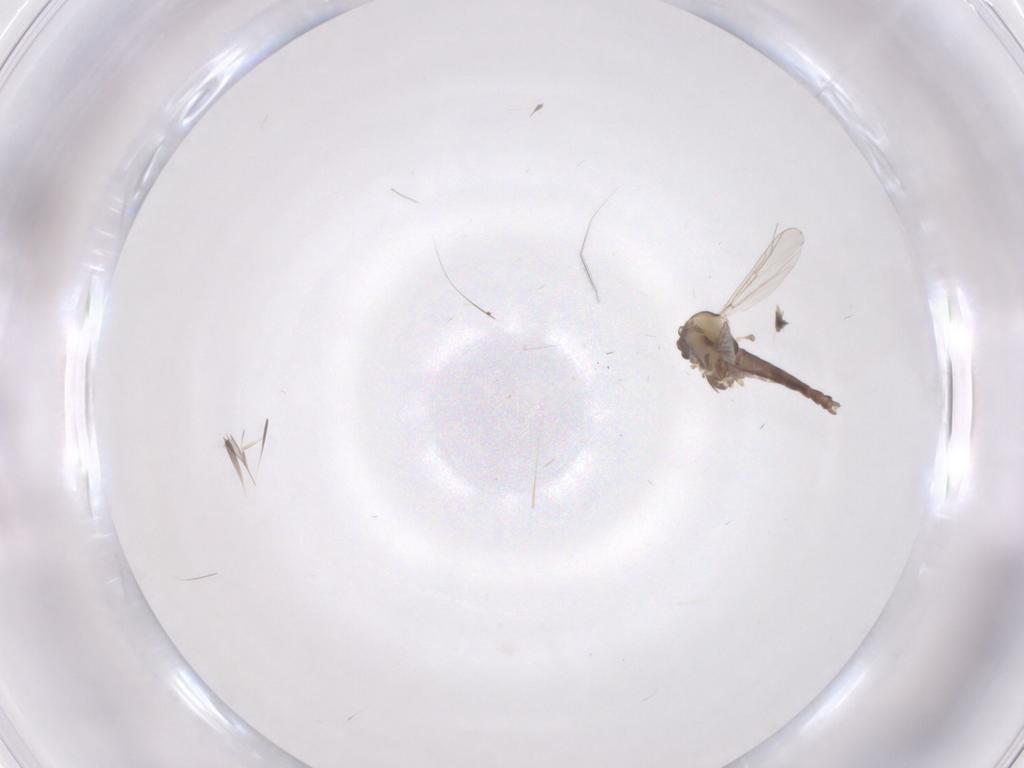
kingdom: Animalia
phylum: Arthropoda
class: Insecta
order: Diptera
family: Chironomidae
